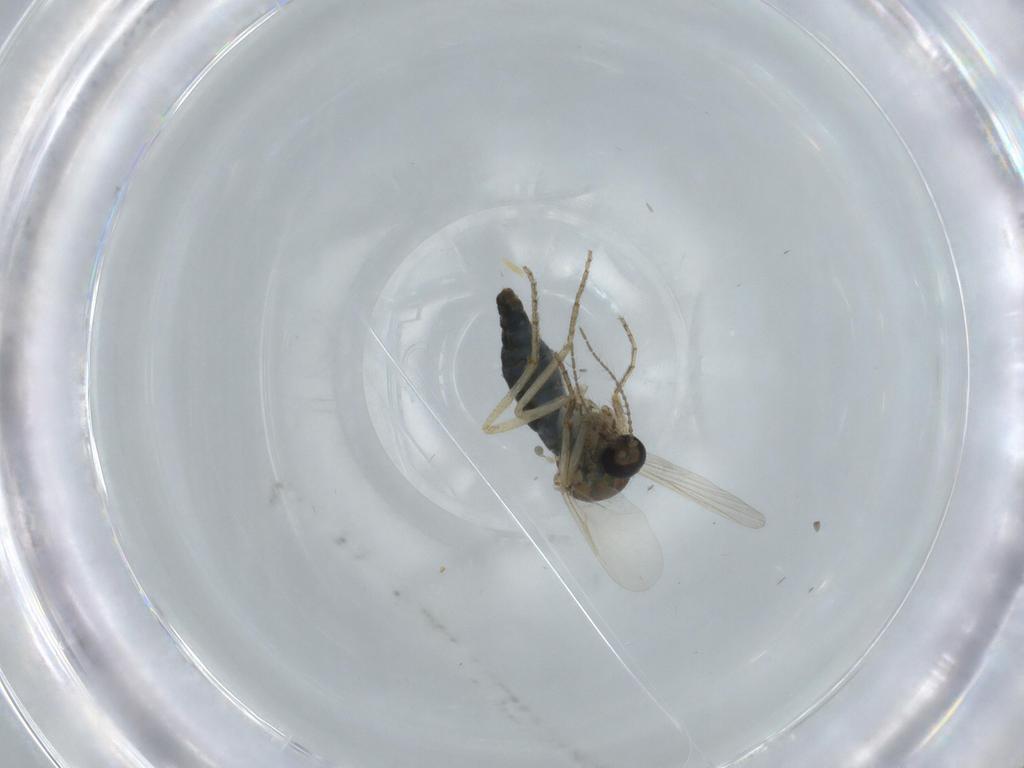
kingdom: Animalia
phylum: Arthropoda
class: Insecta
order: Diptera
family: Ceratopogonidae
